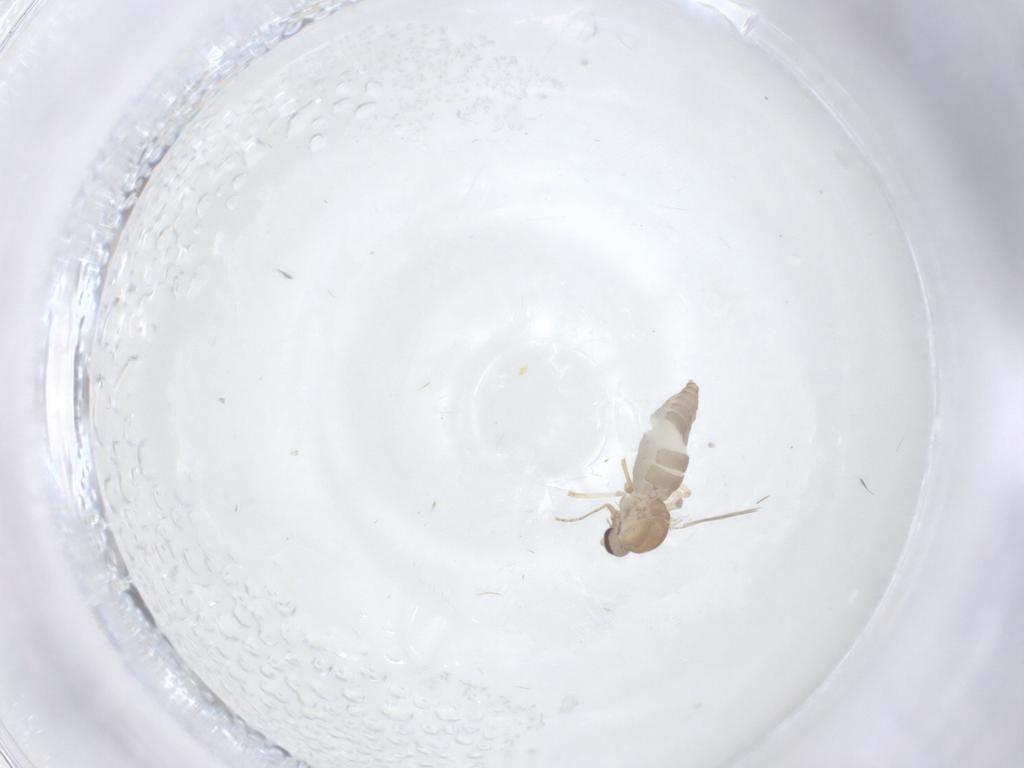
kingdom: Animalia
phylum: Arthropoda
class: Insecta
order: Diptera
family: Ceratopogonidae
